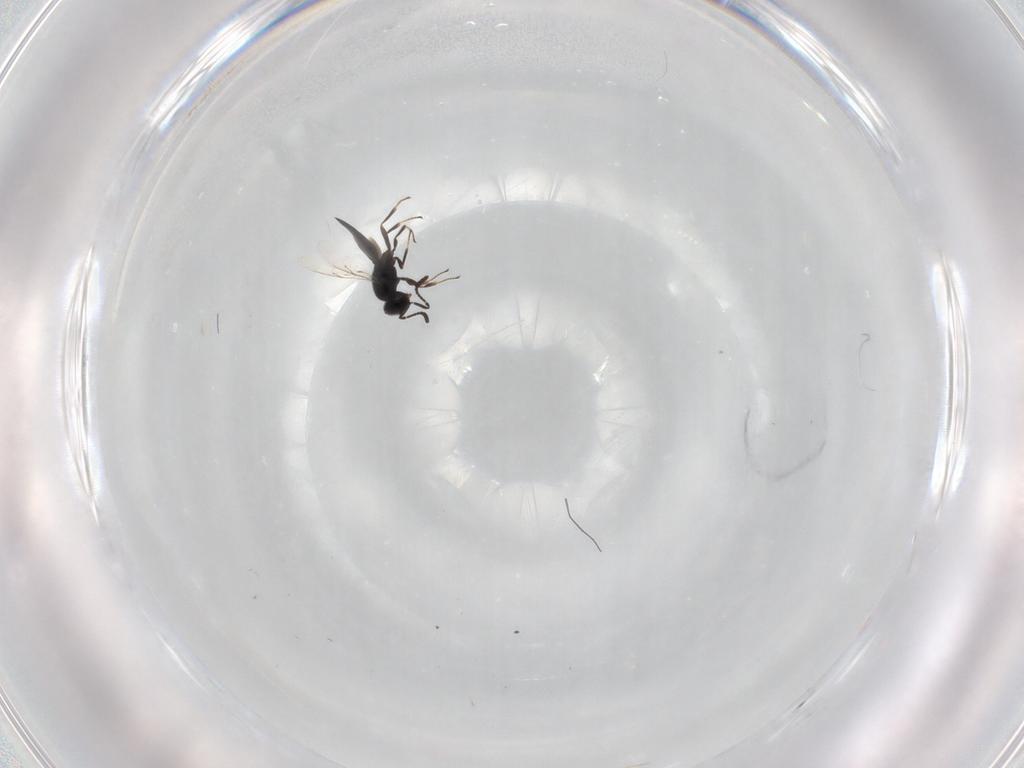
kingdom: Animalia
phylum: Arthropoda
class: Insecta
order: Hymenoptera
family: Scelionidae
